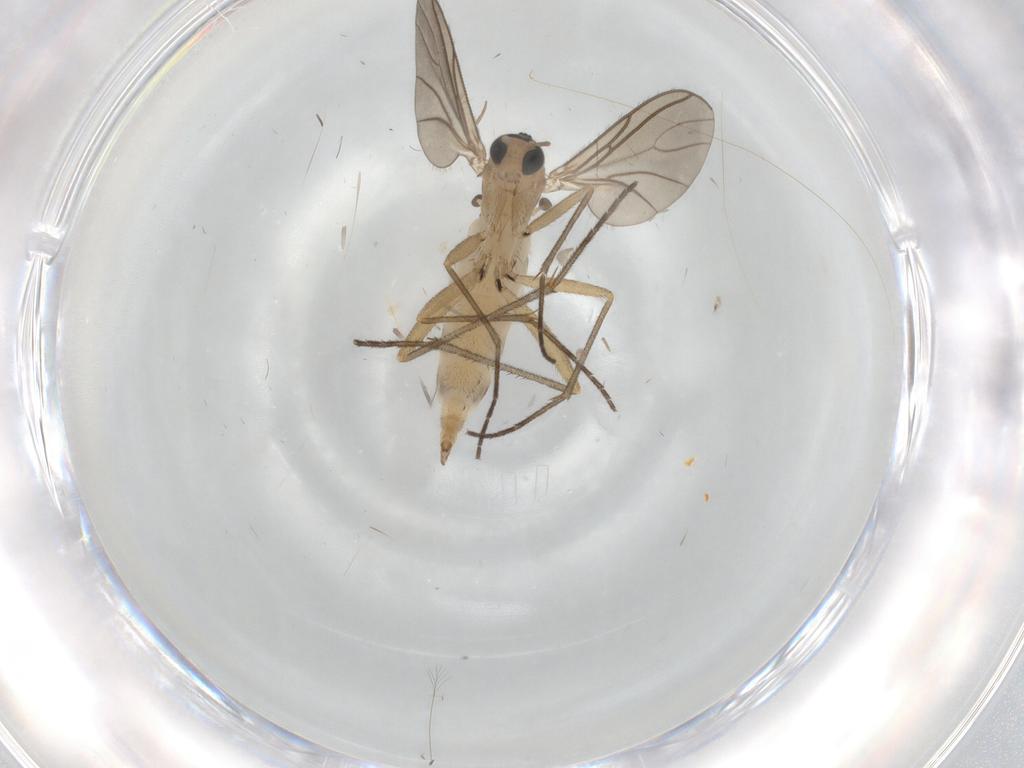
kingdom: Animalia
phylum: Arthropoda
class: Insecta
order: Diptera
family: Sciaridae
